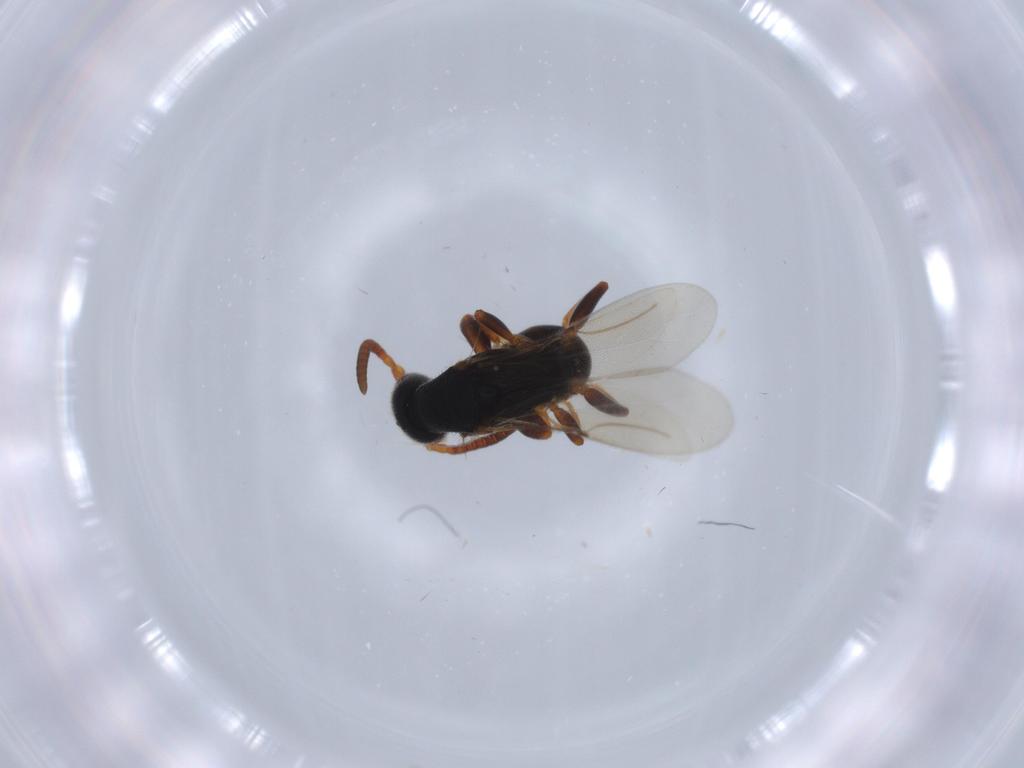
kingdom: Animalia
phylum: Arthropoda
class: Insecta
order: Hymenoptera
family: Bethylidae
